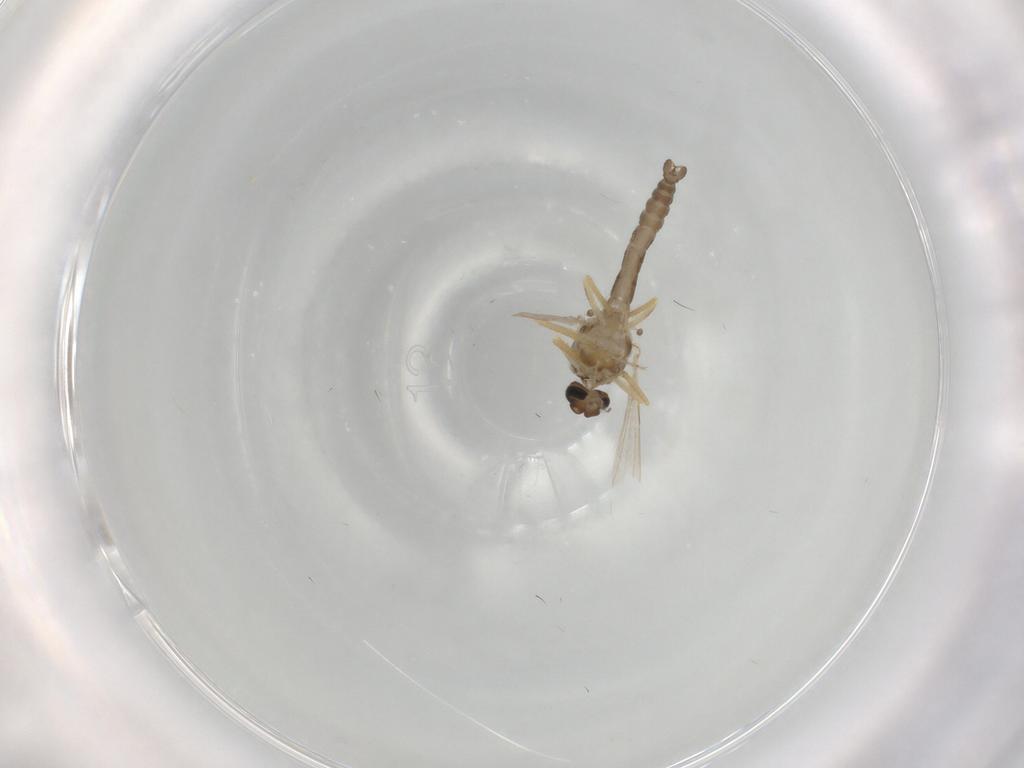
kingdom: Animalia
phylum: Arthropoda
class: Insecta
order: Diptera
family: Ceratopogonidae
